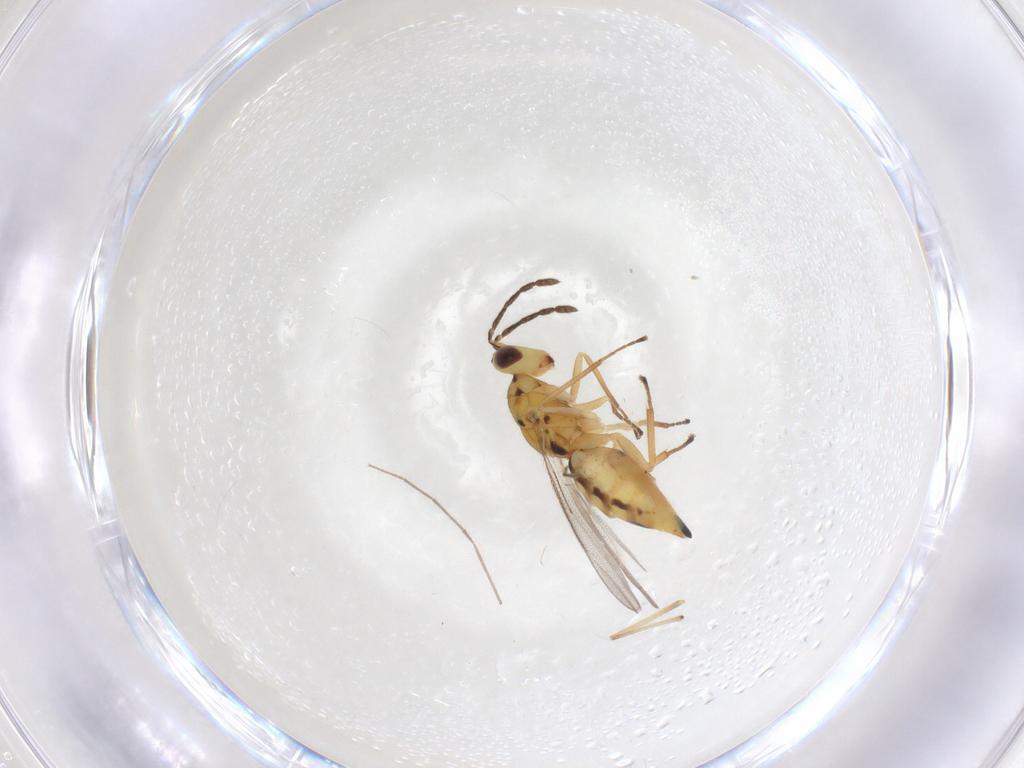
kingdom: Animalia
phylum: Arthropoda
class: Insecta
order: Hymenoptera
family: Eulophidae
